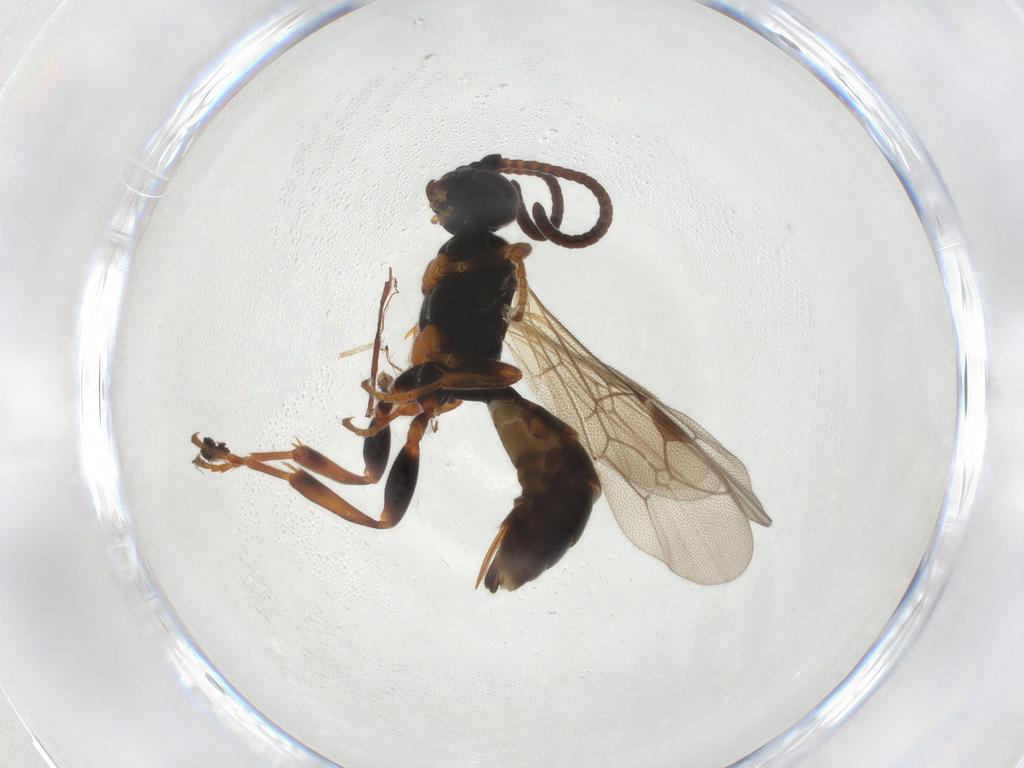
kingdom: Animalia
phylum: Arthropoda
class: Insecta
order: Hymenoptera
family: Ichneumonidae
